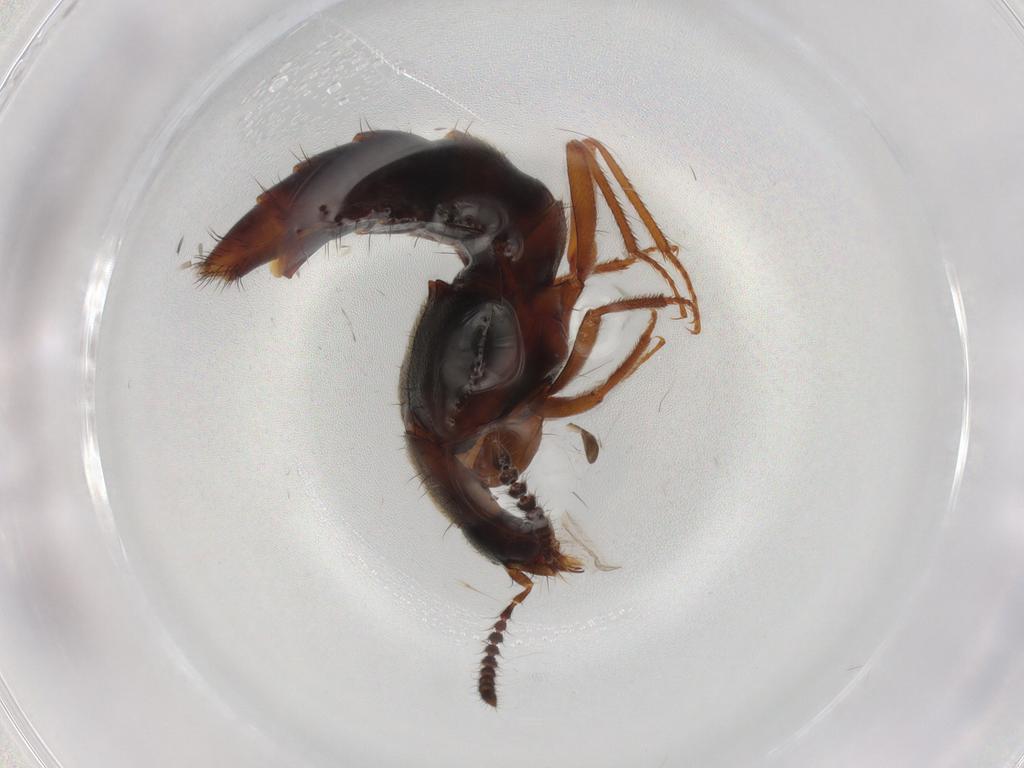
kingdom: Animalia
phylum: Arthropoda
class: Insecta
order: Coleoptera
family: Staphylinidae
